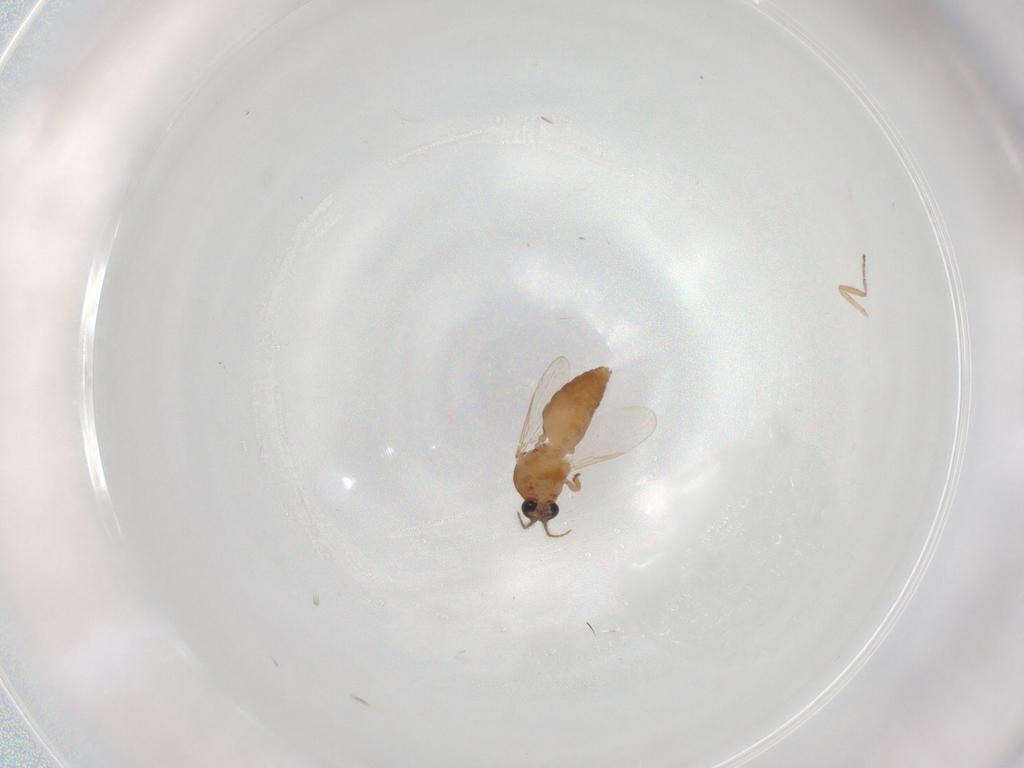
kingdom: Animalia
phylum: Arthropoda
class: Insecta
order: Diptera
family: Ceratopogonidae
